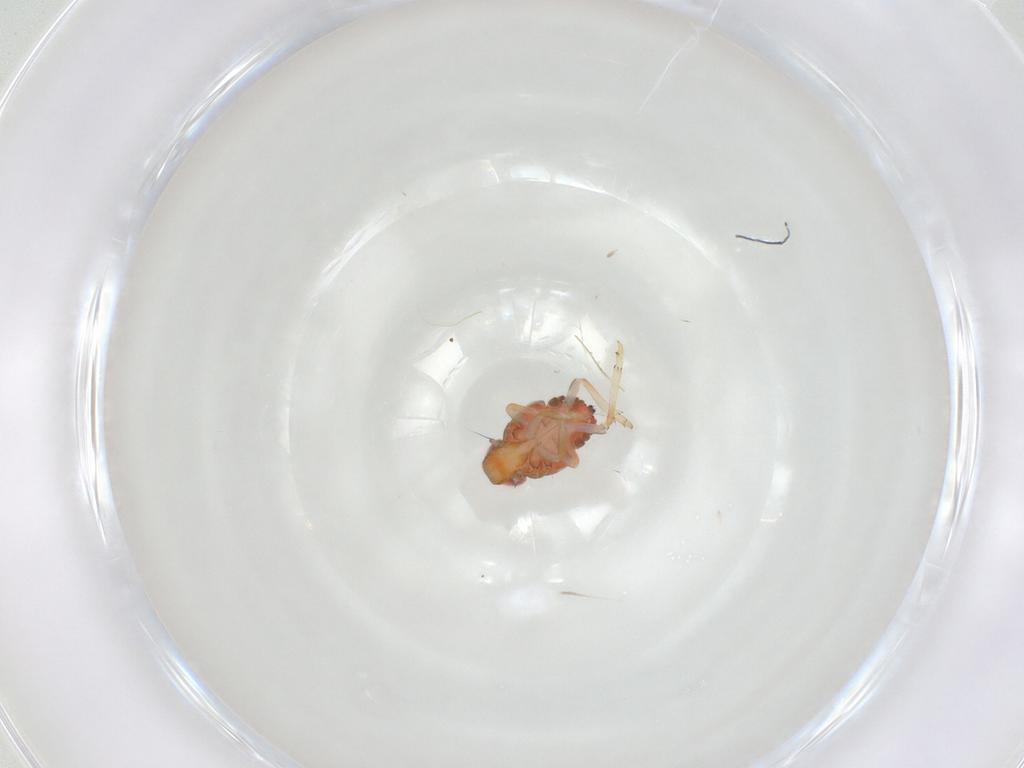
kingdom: Animalia
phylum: Arthropoda
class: Insecta
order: Hemiptera
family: Issidae
